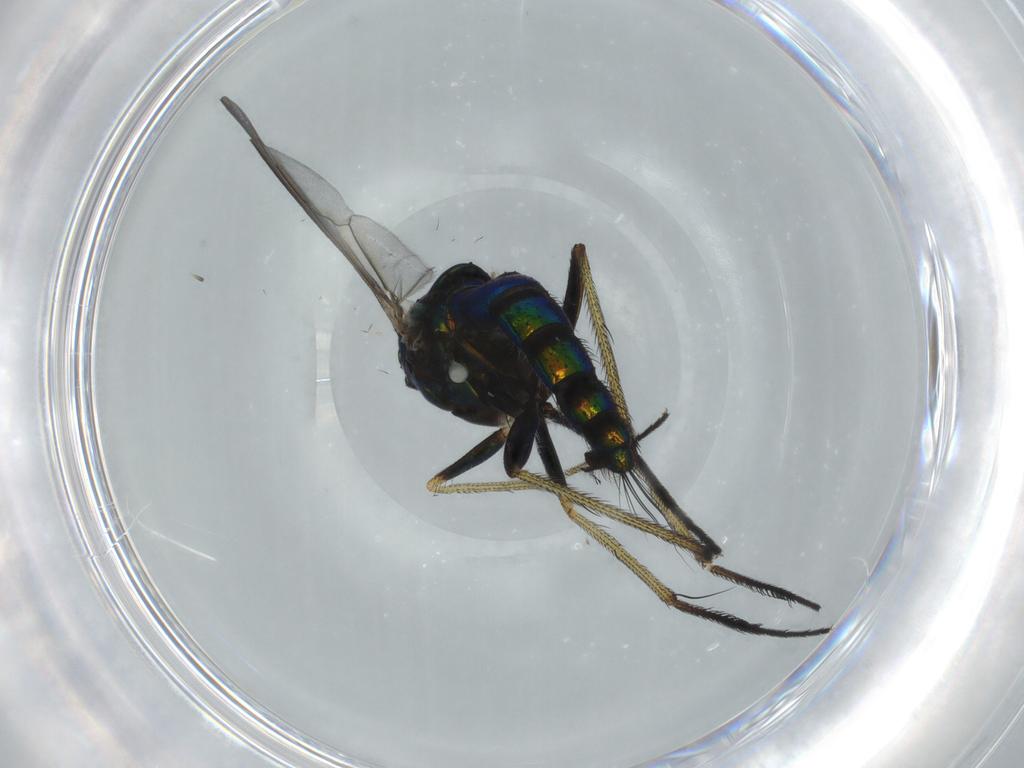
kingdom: Animalia
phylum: Arthropoda
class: Insecta
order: Diptera
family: Dolichopodidae
